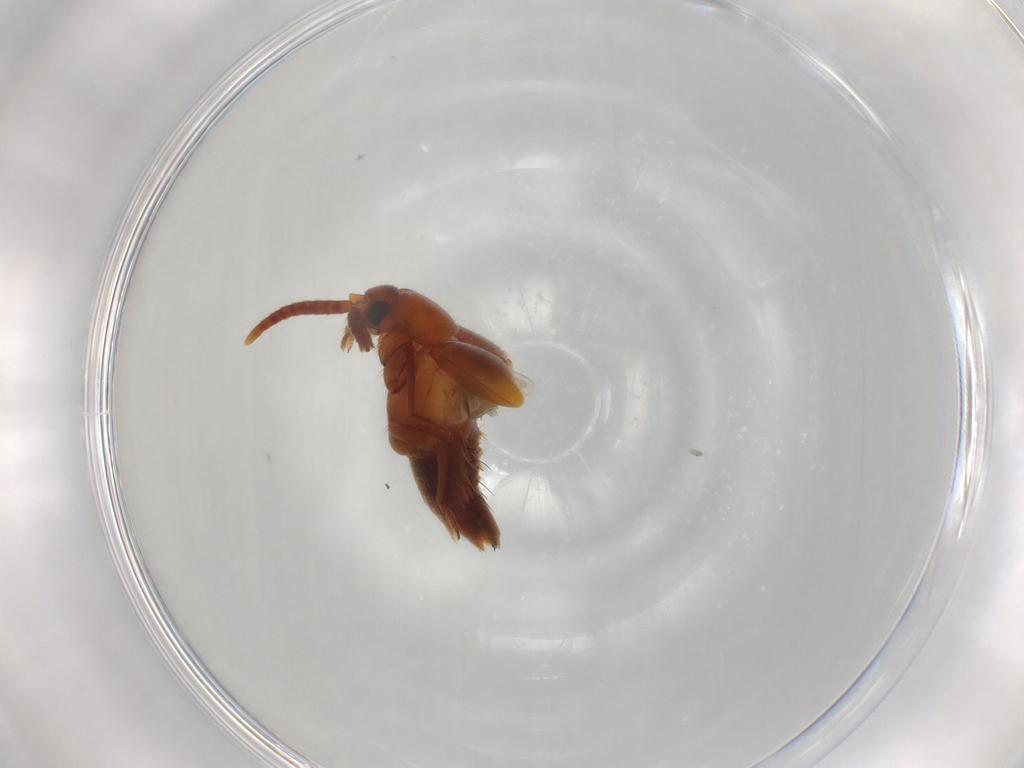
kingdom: Animalia
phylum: Arthropoda
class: Insecta
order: Coleoptera
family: Staphylinidae
